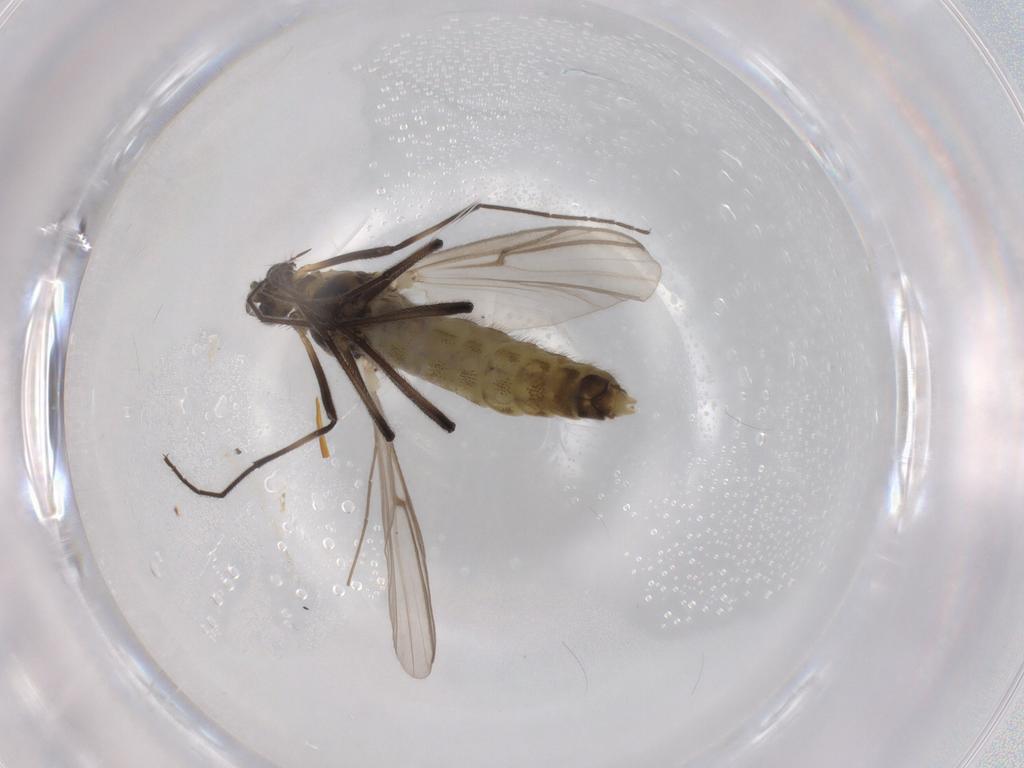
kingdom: Animalia
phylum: Arthropoda
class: Insecta
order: Diptera
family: Chironomidae
